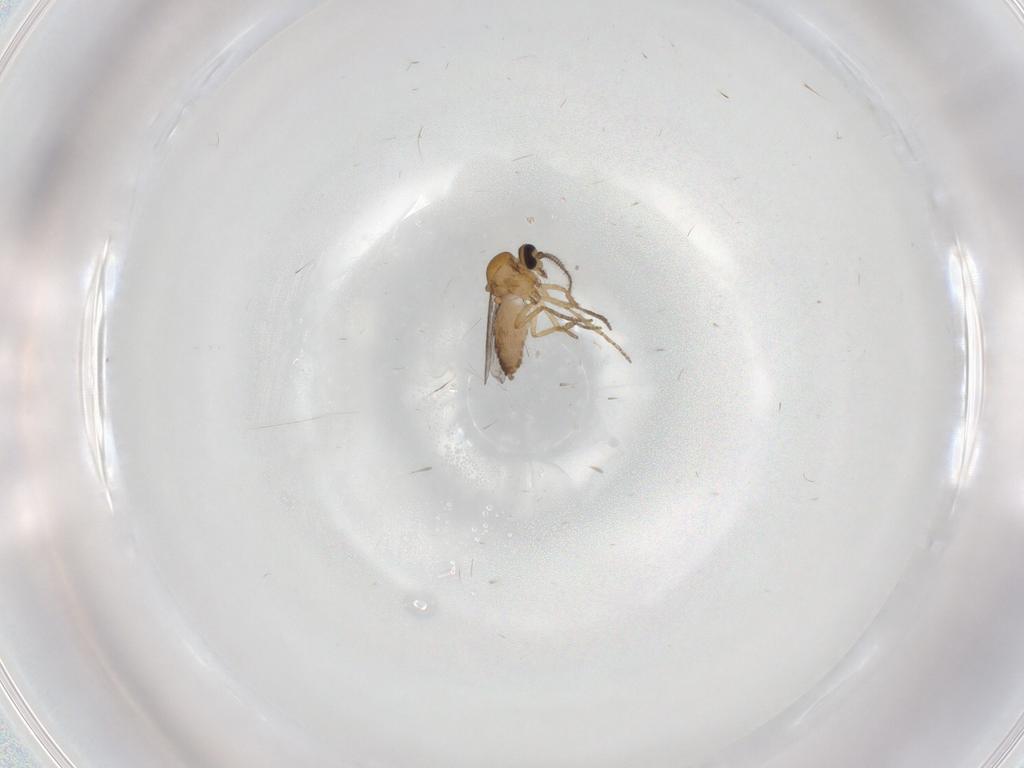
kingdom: Animalia
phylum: Arthropoda
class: Insecta
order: Diptera
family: Ceratopogonidae
